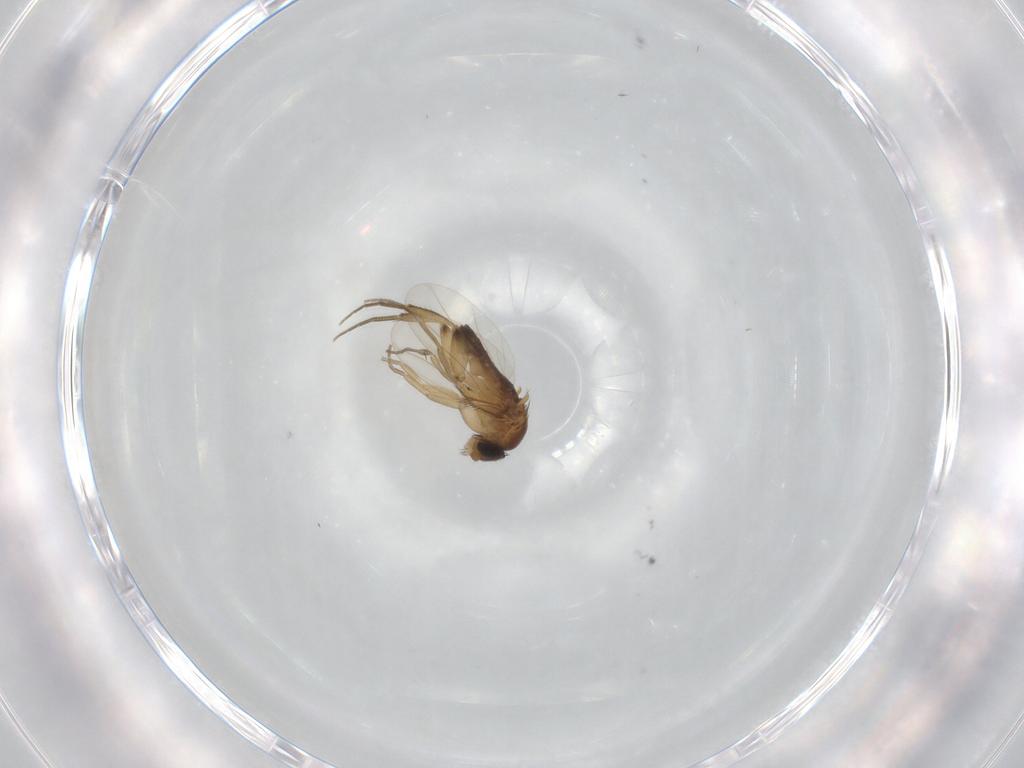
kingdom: Animalia
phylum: Arthropoda
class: Insecta
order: Diptera
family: Phoridae
